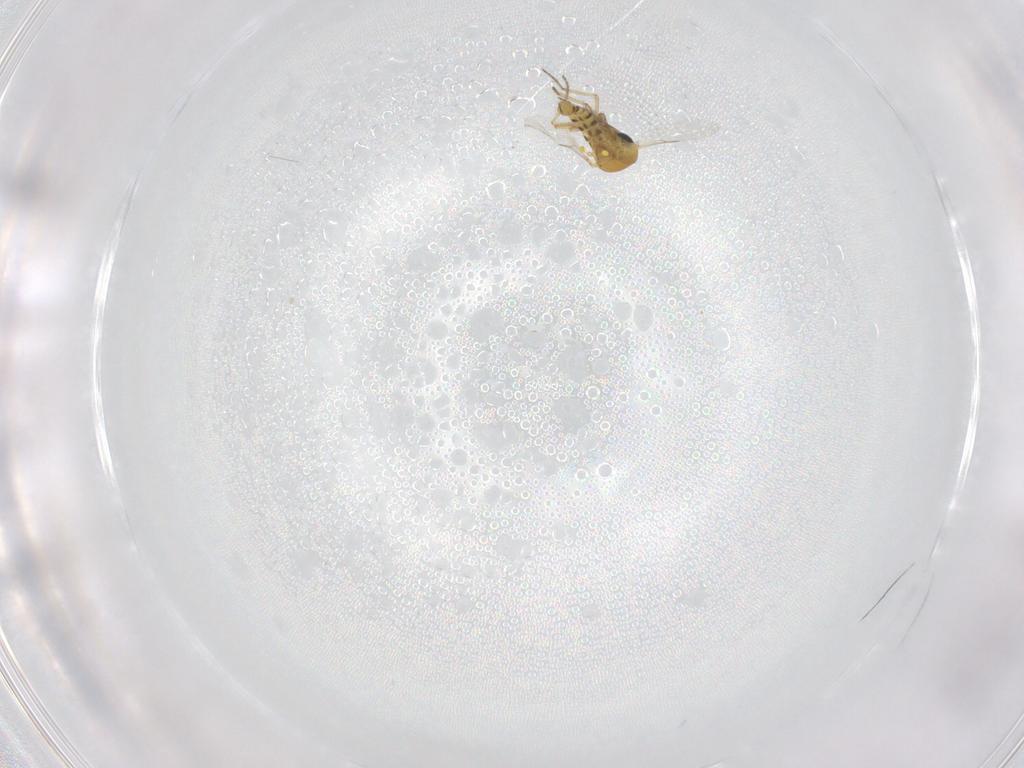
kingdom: Animalia
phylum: Arthropoda
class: Insecta
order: Diptera
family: Ceratopogonidae
